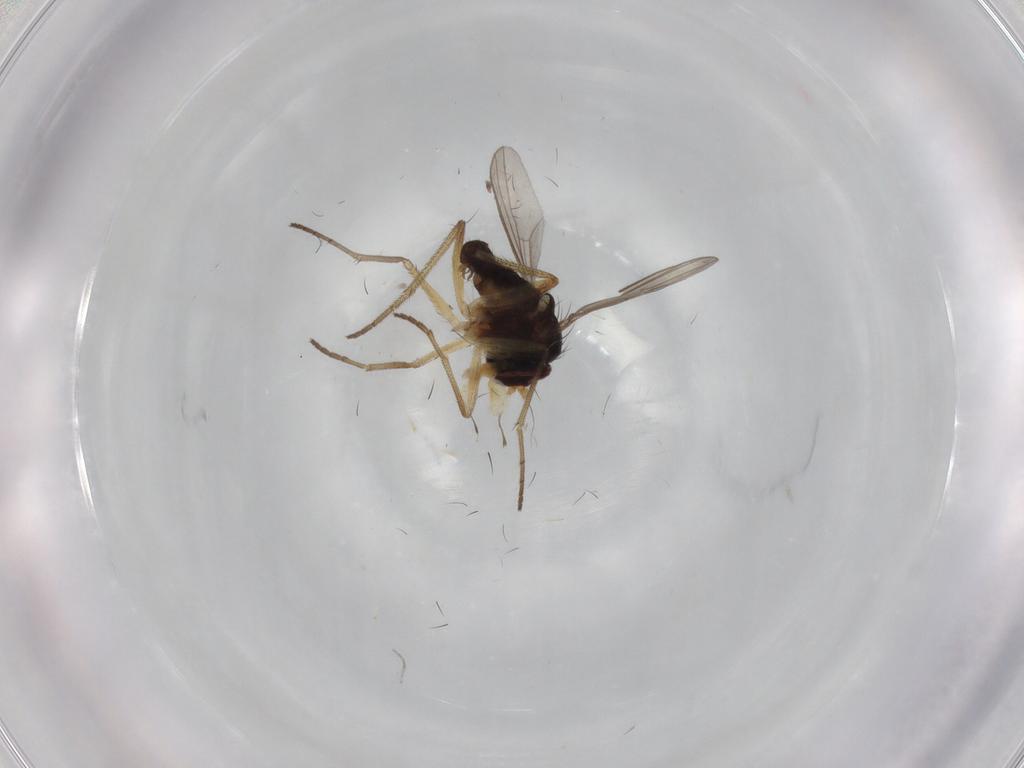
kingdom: Animalia
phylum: Arthropoda
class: Insecta
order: Diptera
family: Dolichopodidae
